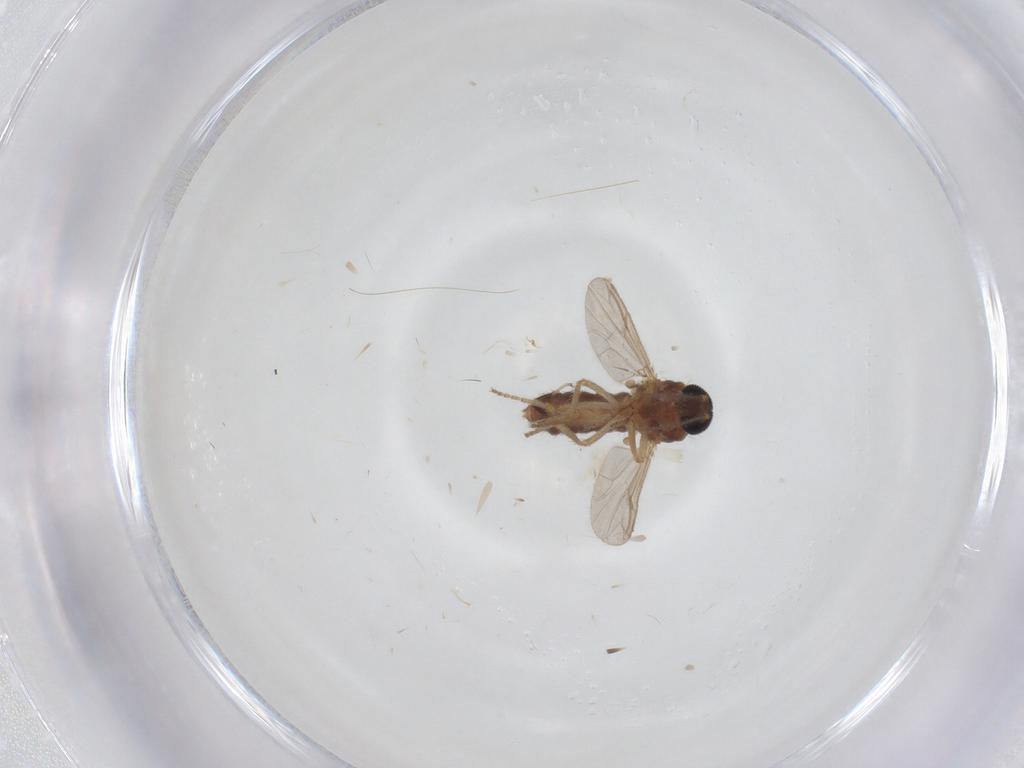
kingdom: Animalia
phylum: Arthropoda
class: Insecta
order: Diptera
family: Ceratopogonidae
